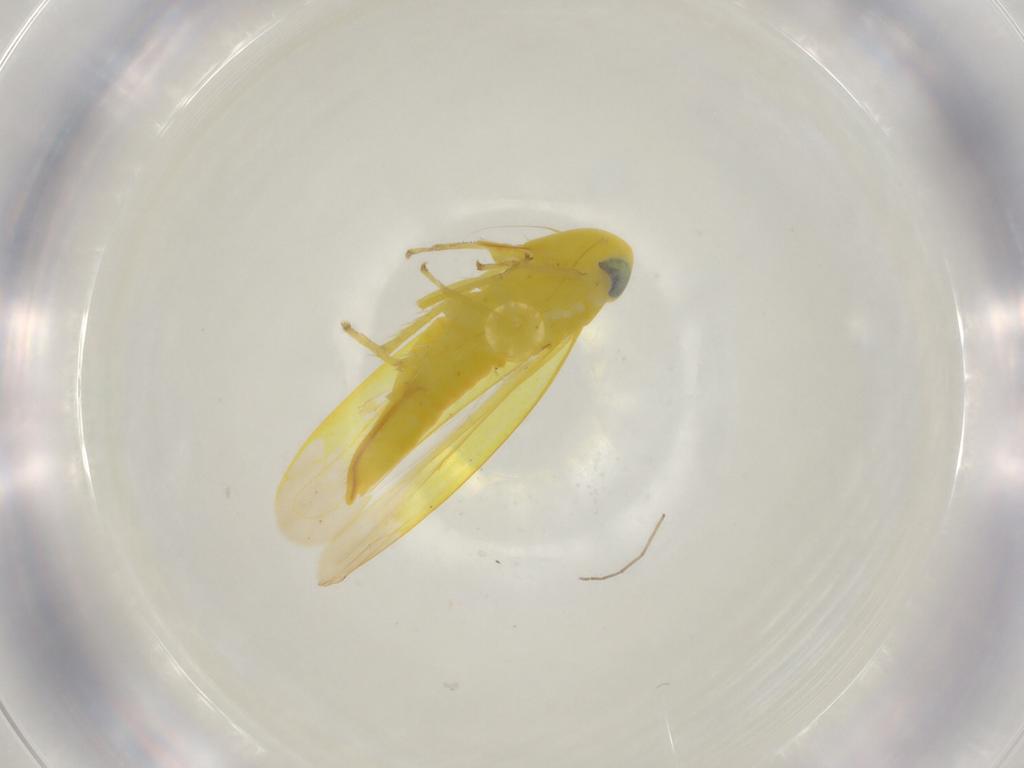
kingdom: Animalia
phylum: Arthropoda
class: Insecta
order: Hemiptera
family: Cicadellidae
